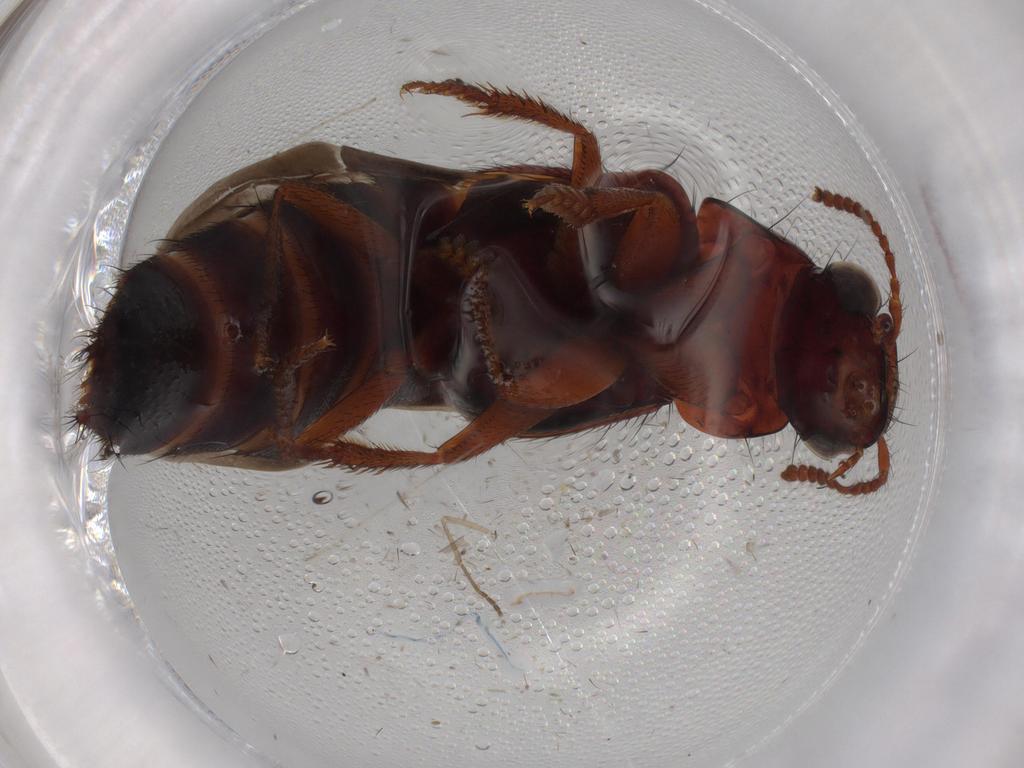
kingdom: Animalia
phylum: Arthropoda
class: Insecta
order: Coleoptera
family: Staphylinidae
